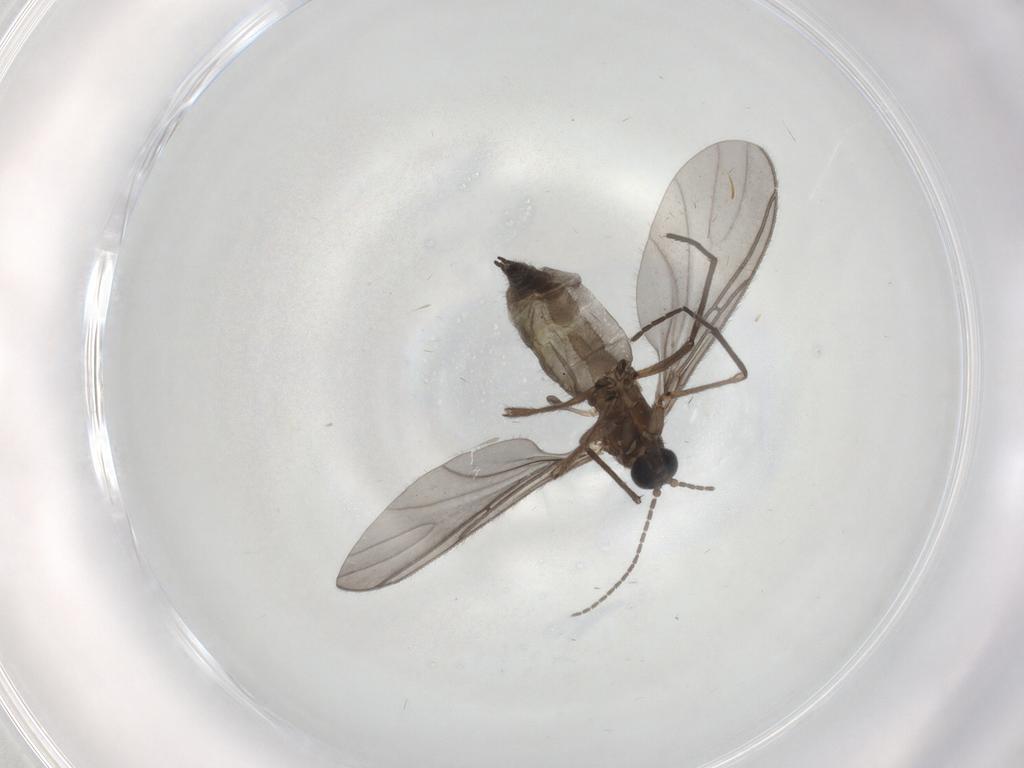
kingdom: Animalia
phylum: Arthropoda
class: Insecta
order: Diptera
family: Sciaridae
